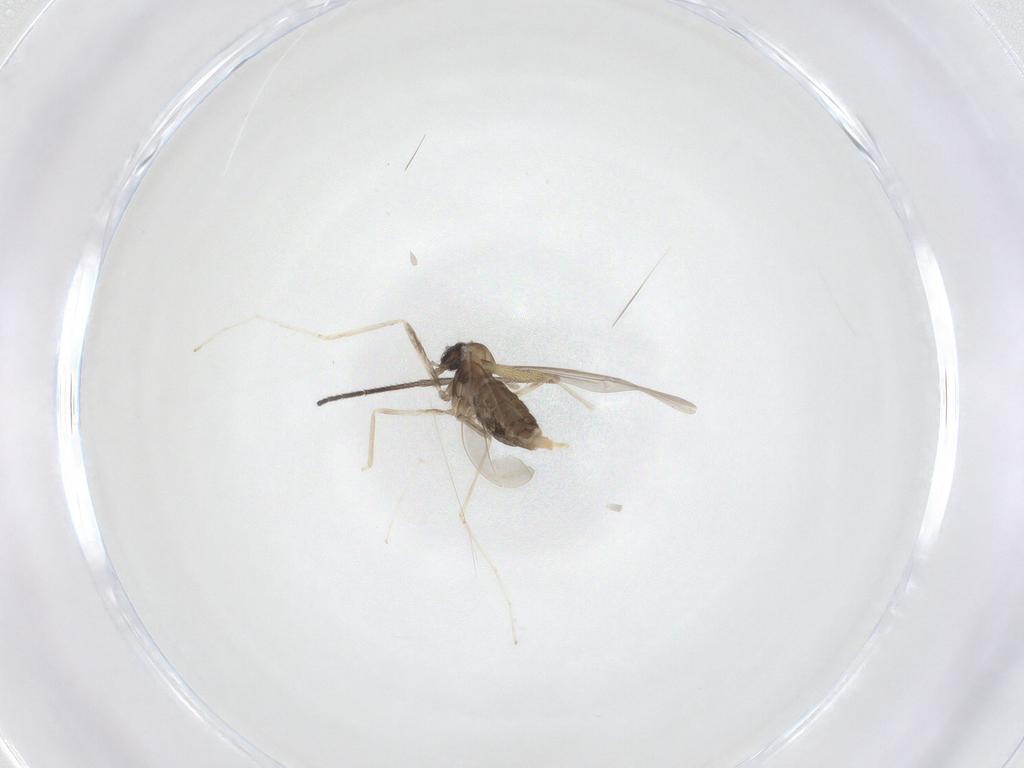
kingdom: Animalia
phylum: Arthropoda
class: Insecta
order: Diptera
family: Cecidomyiidae
